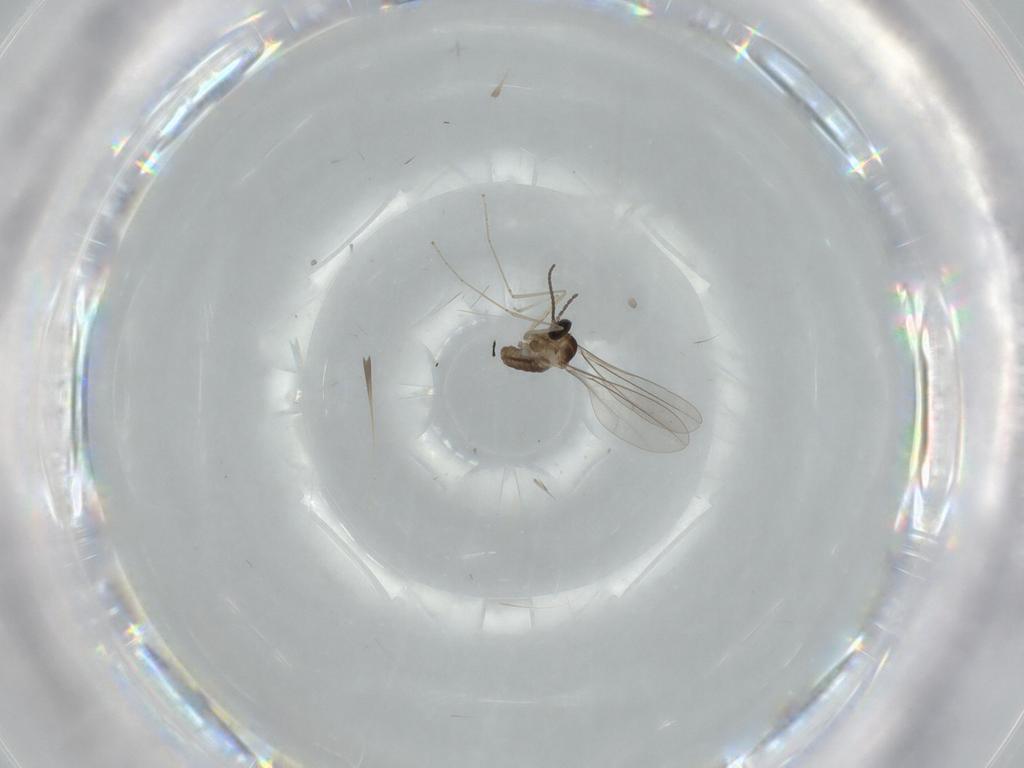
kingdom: Animalia
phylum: Arthropoda
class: Insecta
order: Diptera
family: Cecidomyiidae
